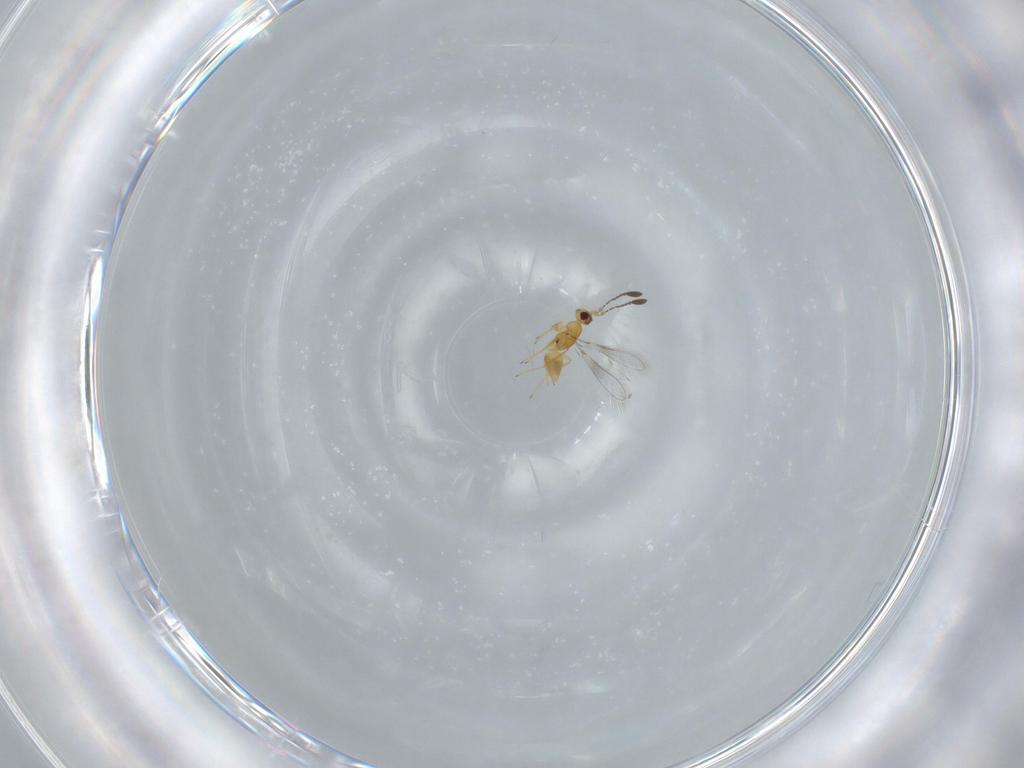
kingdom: Animalia
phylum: Arthropoda
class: Insecta
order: Hymenoptera
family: Mymaridae
